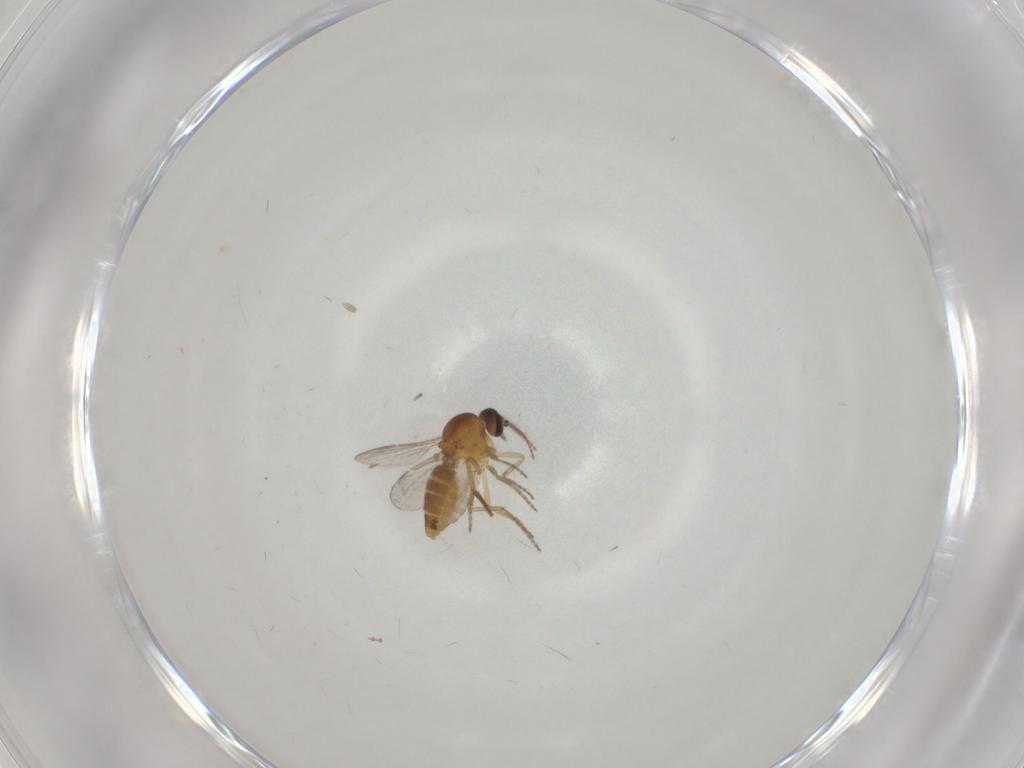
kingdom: Animalia
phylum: Arthropoda
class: Insecta
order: Diptera
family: Ceratopogonidae
